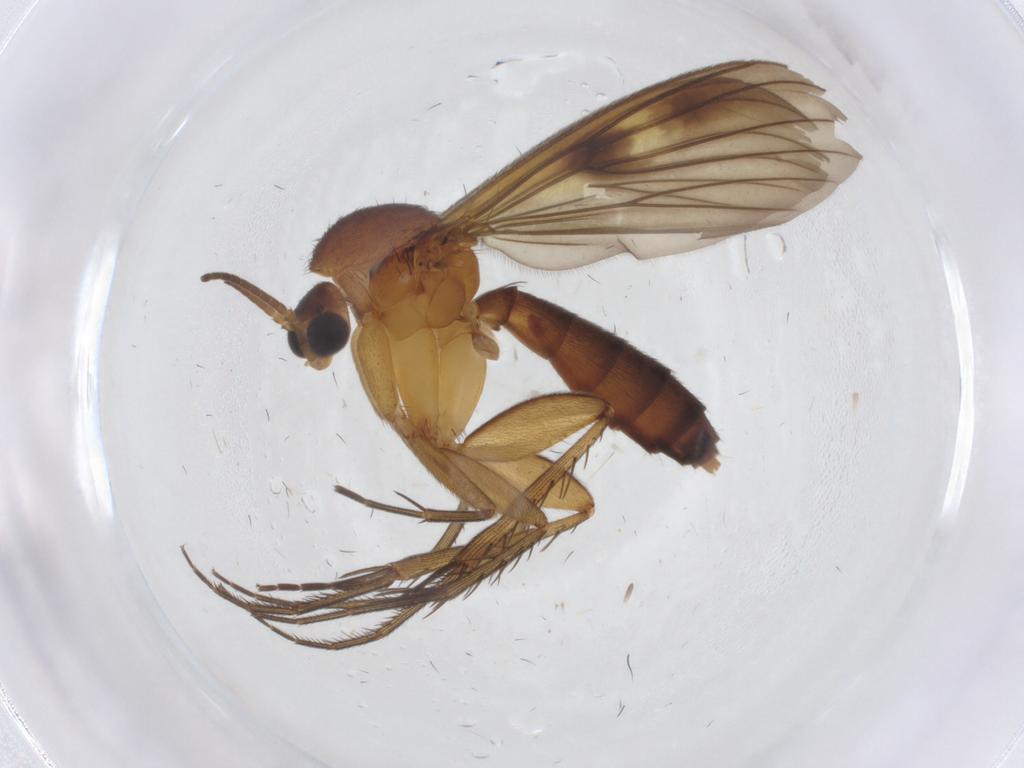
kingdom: Animalia
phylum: Arthropoda
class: Insecta
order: Diptera
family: Mycetophilidae
